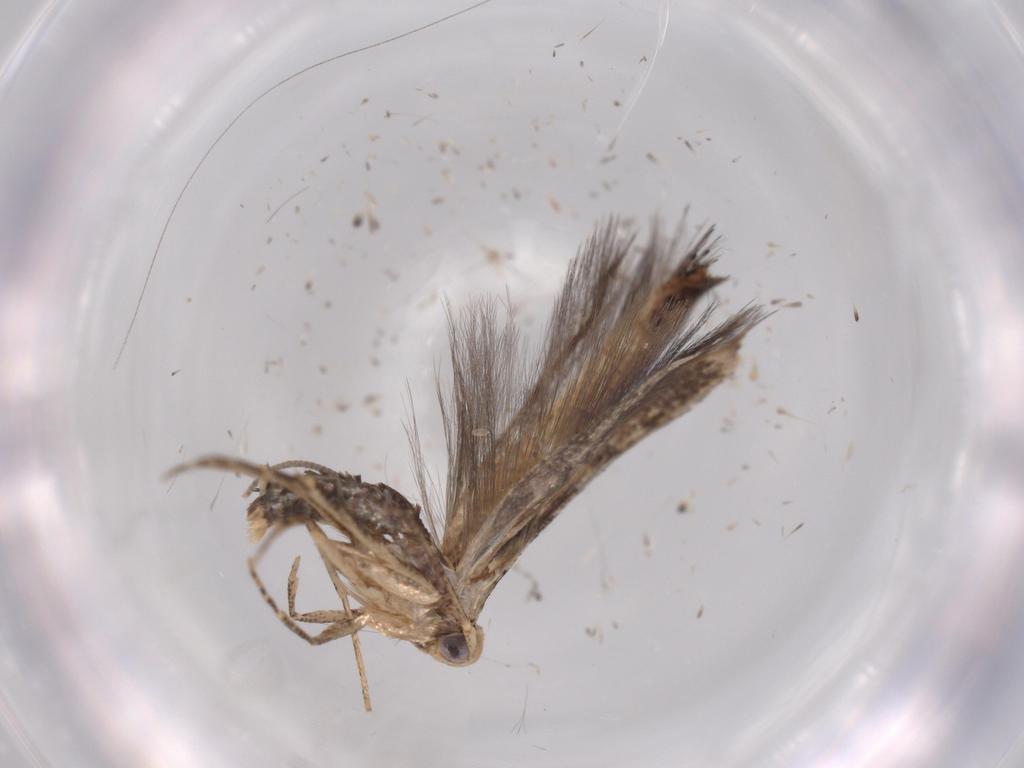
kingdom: Animalia
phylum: Arthropoda
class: Insecta
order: Lepidoptera
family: Lyonetiidae
